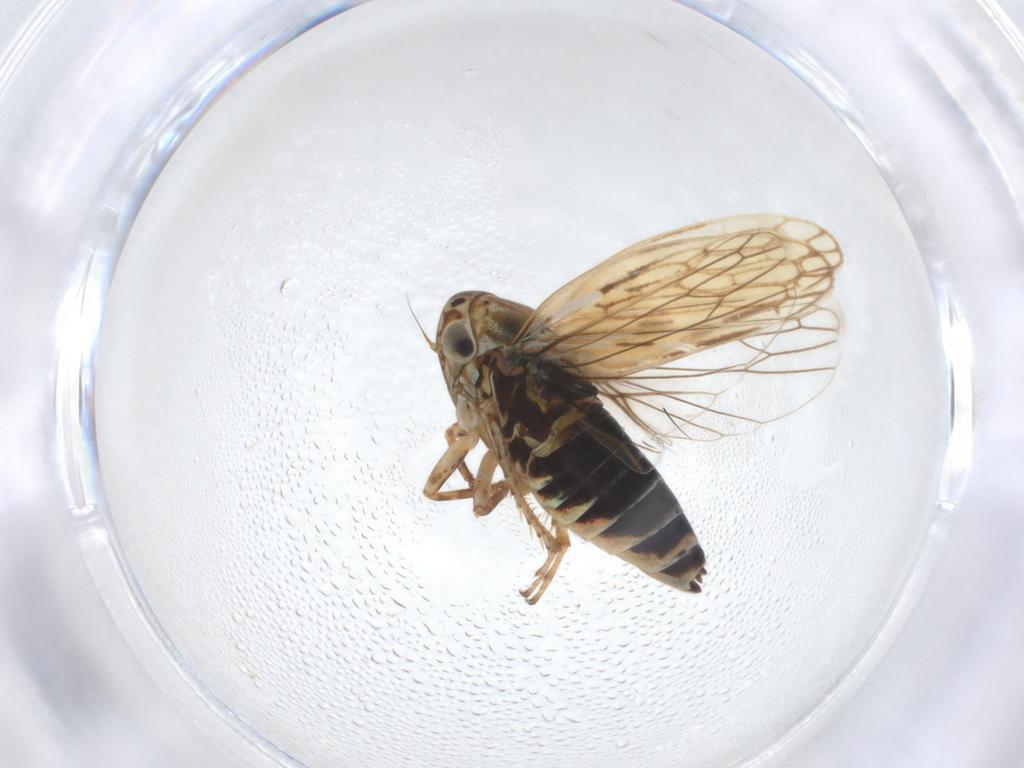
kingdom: Animalia
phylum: Arthropoda
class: Insecta
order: Hemiptera
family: Cicadellidae
